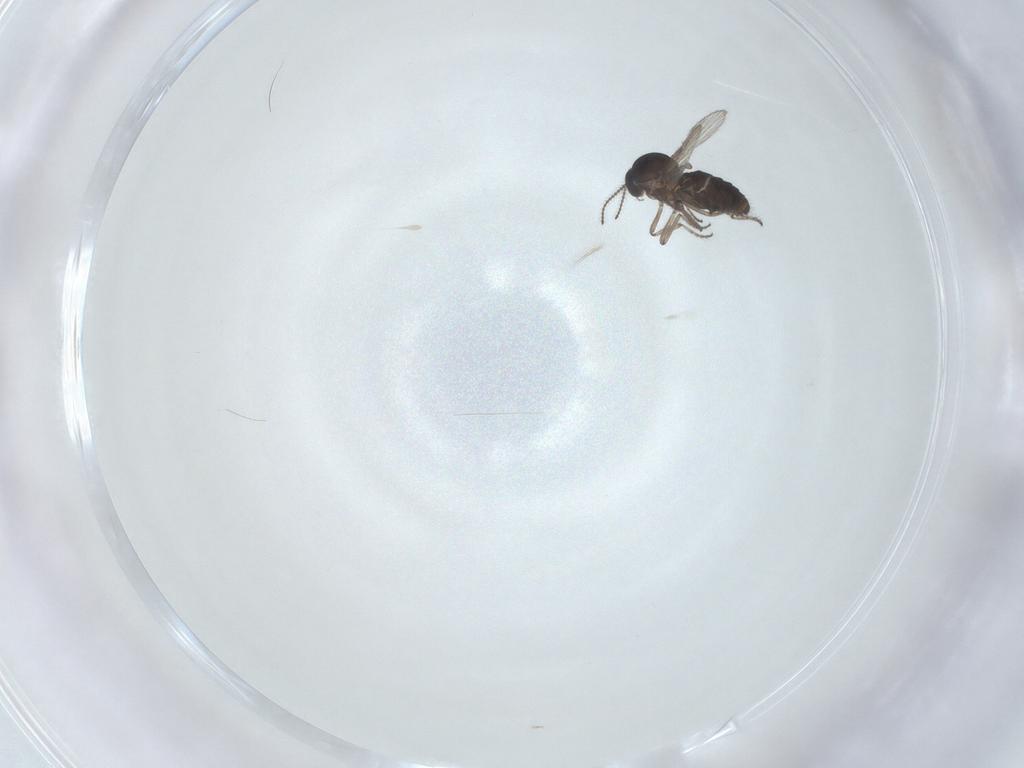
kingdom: Animalia
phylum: Arthropoda
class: Insecta
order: Diptera
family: Ceratopogonidae
